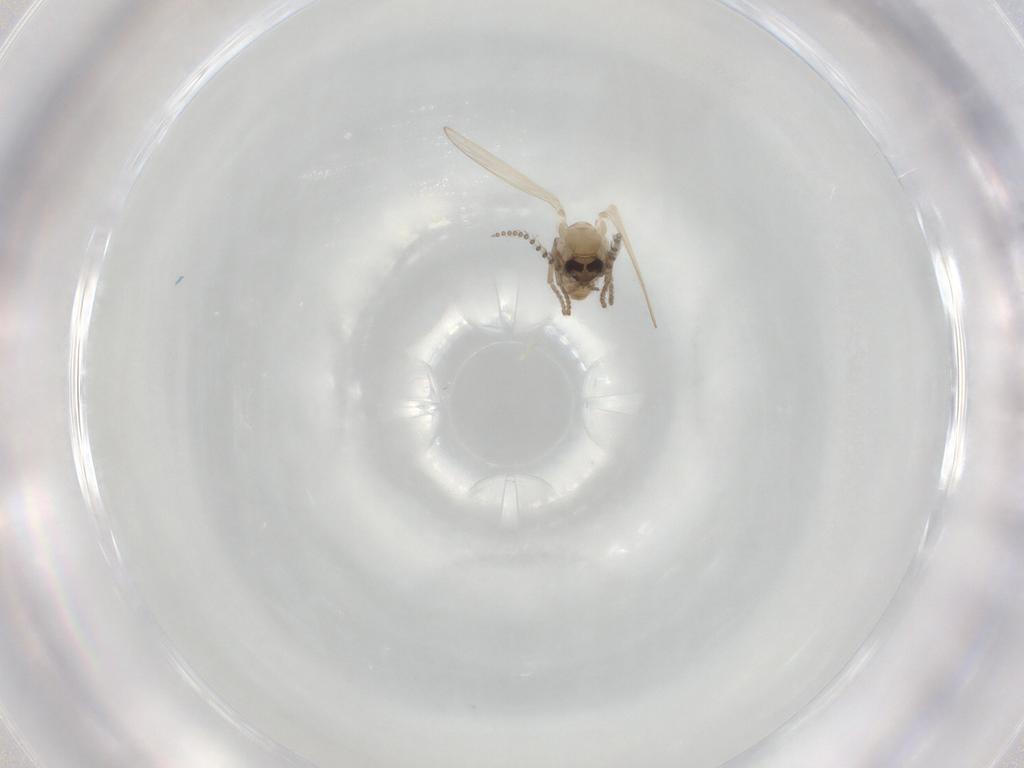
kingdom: Animalia
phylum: Arthropoda
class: Insecta
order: Diptera
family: Psychodidae
